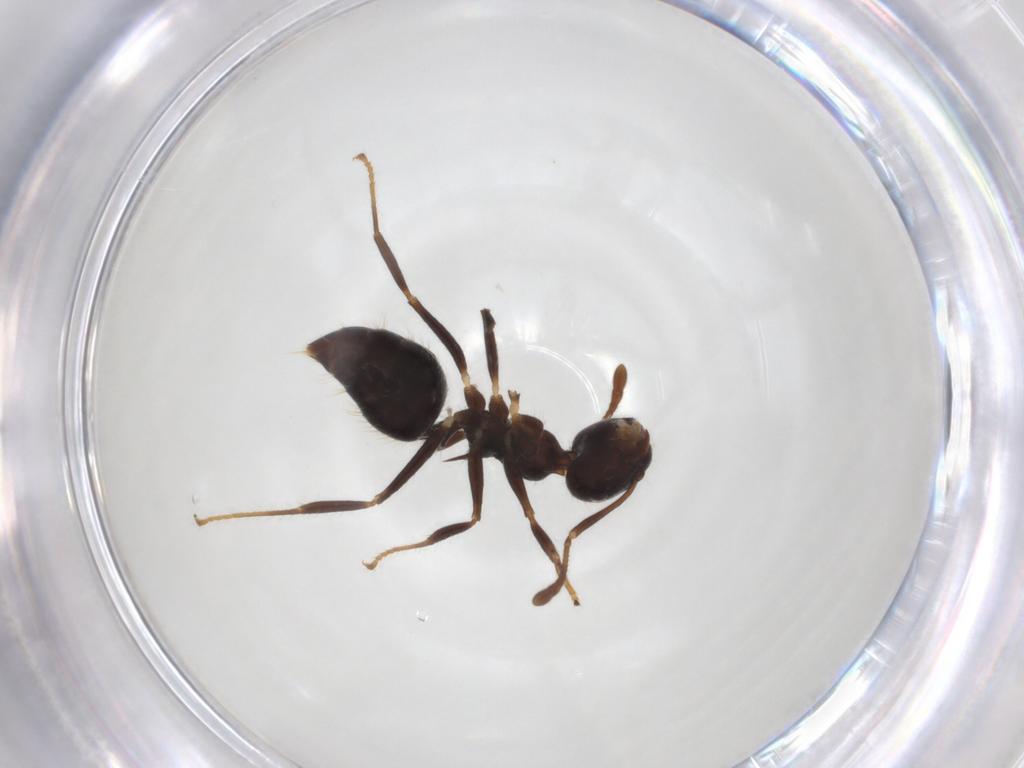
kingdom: Animalia
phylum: Arthropoda
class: Insecta
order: Hymenoptera
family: Formicidae
